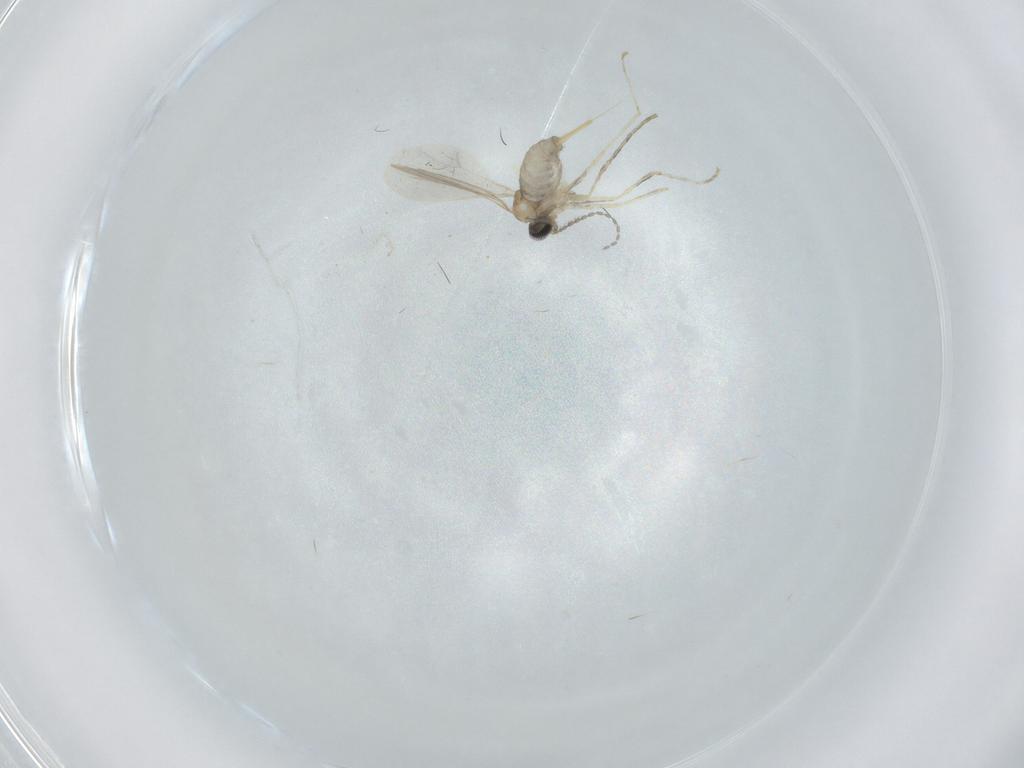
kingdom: Animalia
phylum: Arthropoda
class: Insecta
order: Diptera
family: Cecidomyiidae
